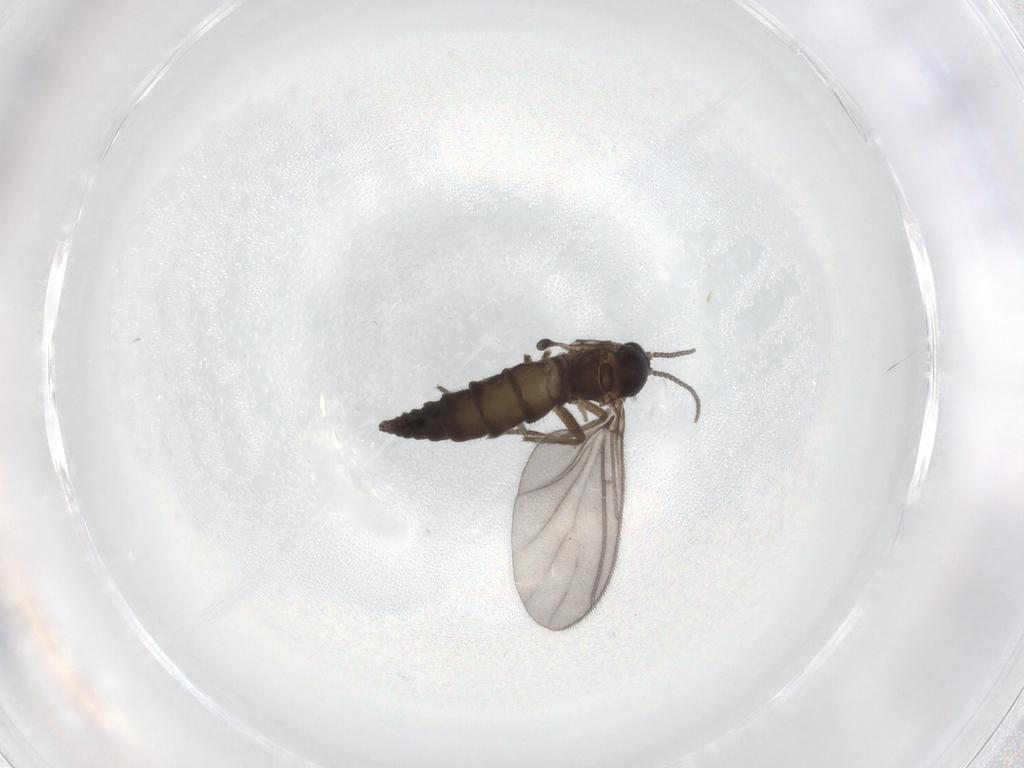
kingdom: Animalia
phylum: Arthropoda
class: Insecta
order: Diptera
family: Sciaridae
